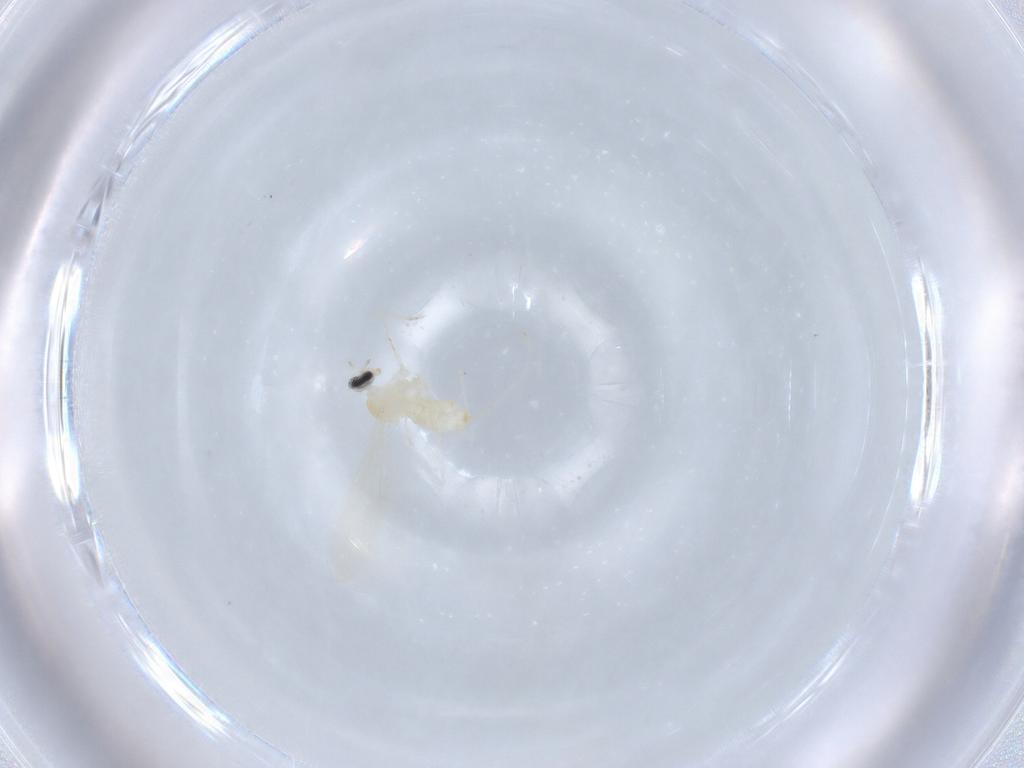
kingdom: Animalia
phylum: Arthropoda
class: Insecta
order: Diptera
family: Cecidomyiidae
